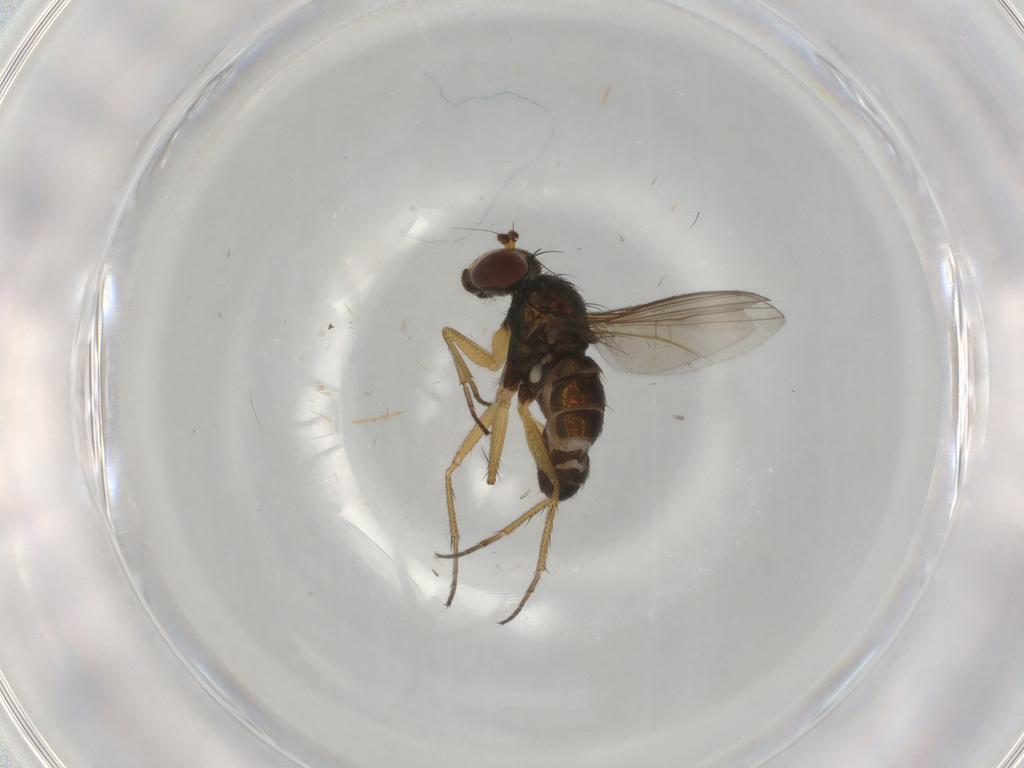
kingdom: Animalia
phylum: Arthropoda
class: Insecta
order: Diptera
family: Dolichopodidae
